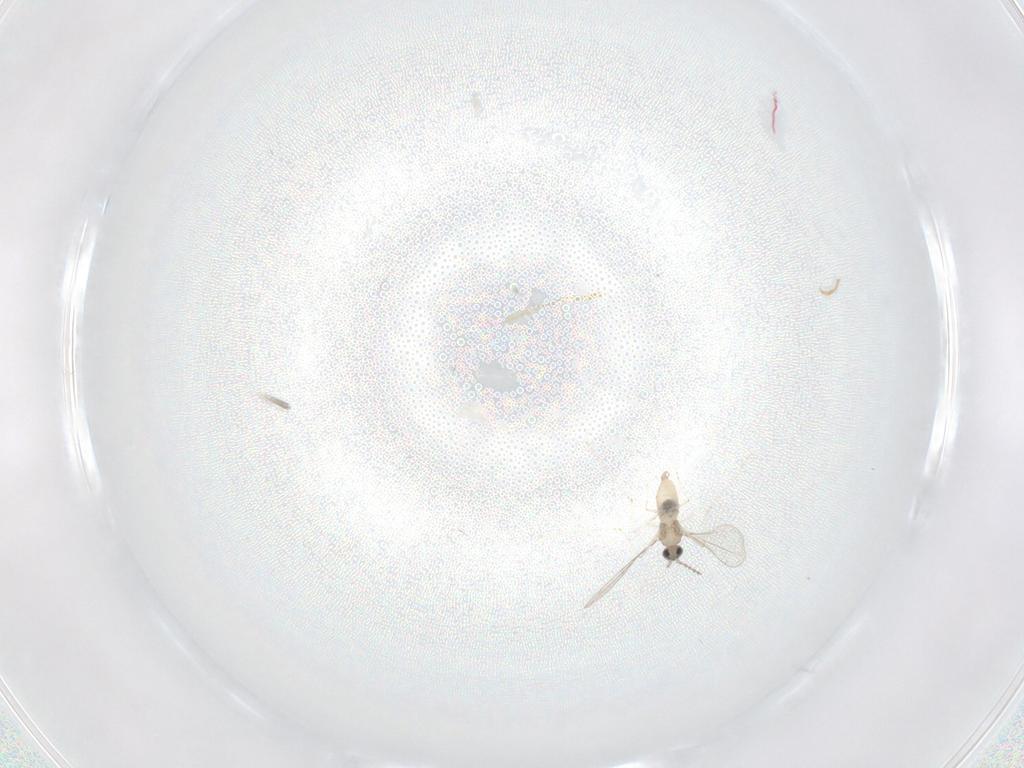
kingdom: Animalia
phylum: Arthropoda
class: Insecta
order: Diptera
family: Cecidomyiidae
